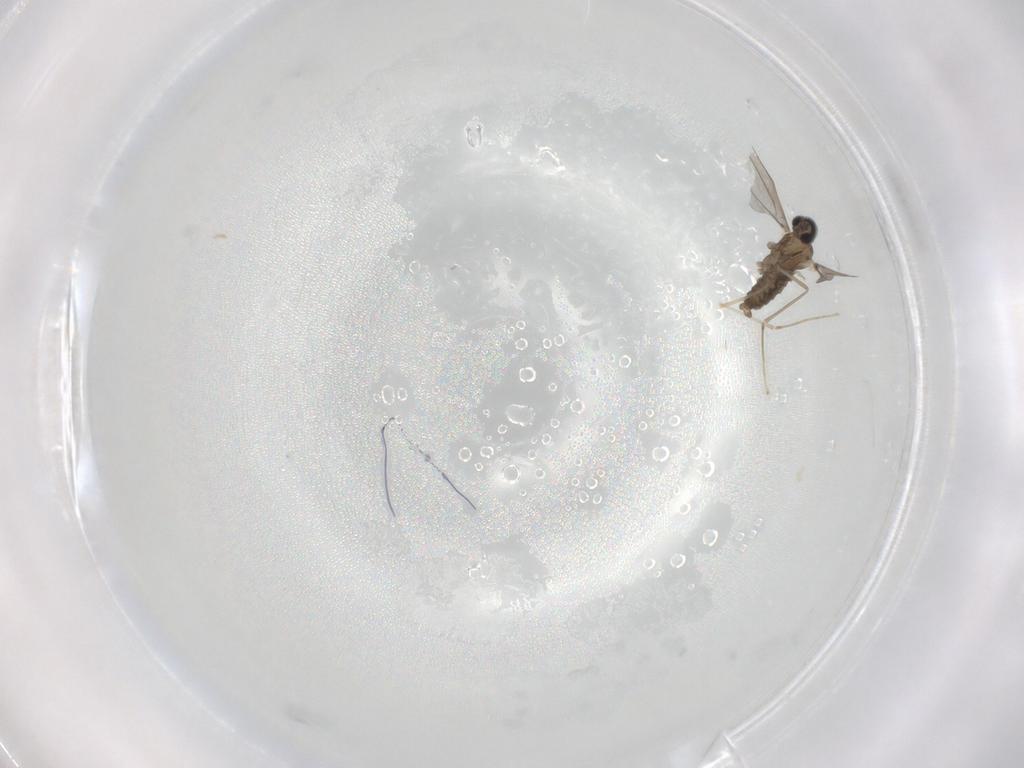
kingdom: Animalia
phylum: Arthropoda
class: Insecta
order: Diptera
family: Cecidomyiidae
